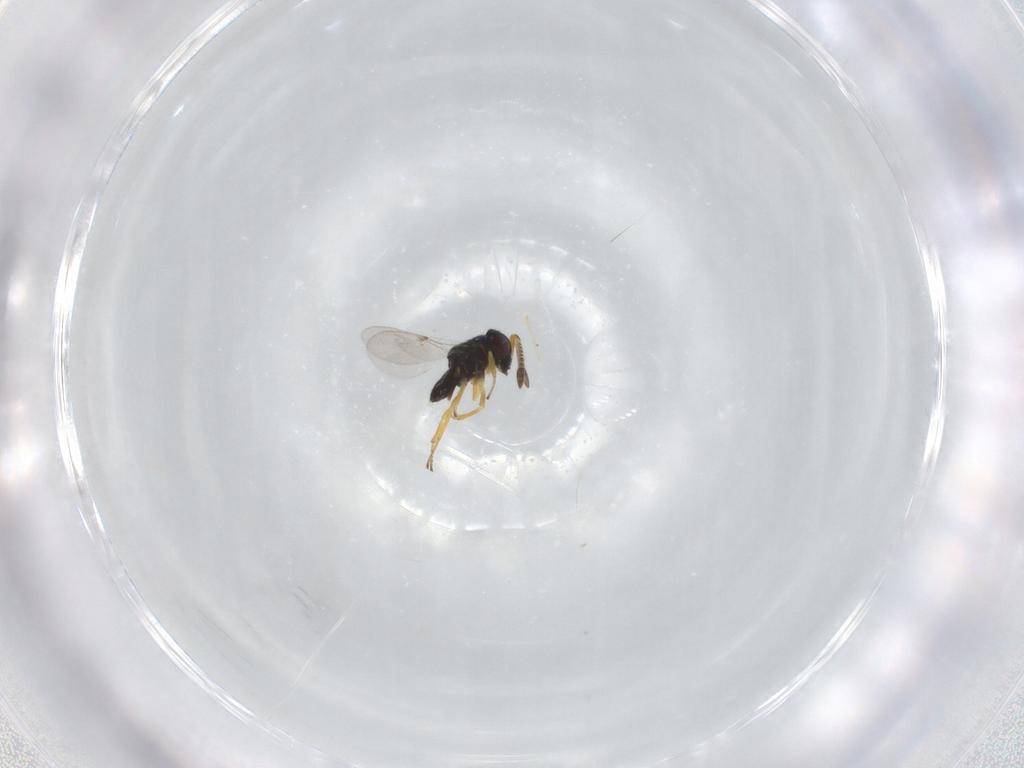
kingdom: Animalia
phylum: Arthropoda
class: Insecta
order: Hymenoptera
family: Encyrtidae
